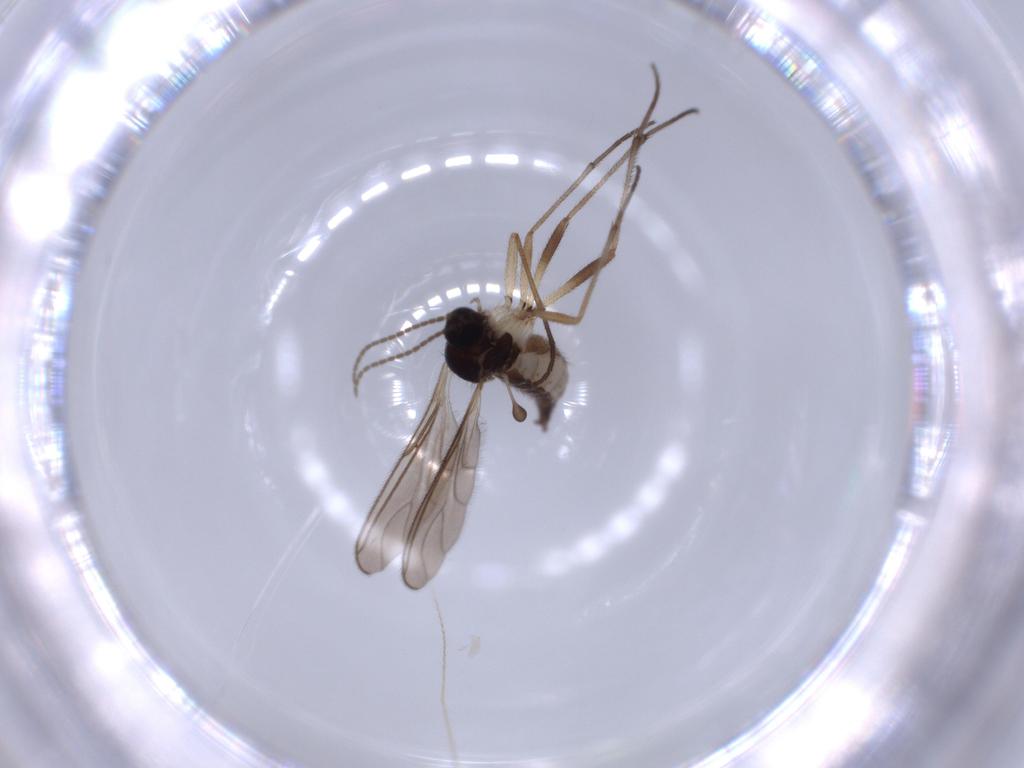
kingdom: Animalia
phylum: Arthropoda
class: Insecta
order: Diptera
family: Sciaridae
